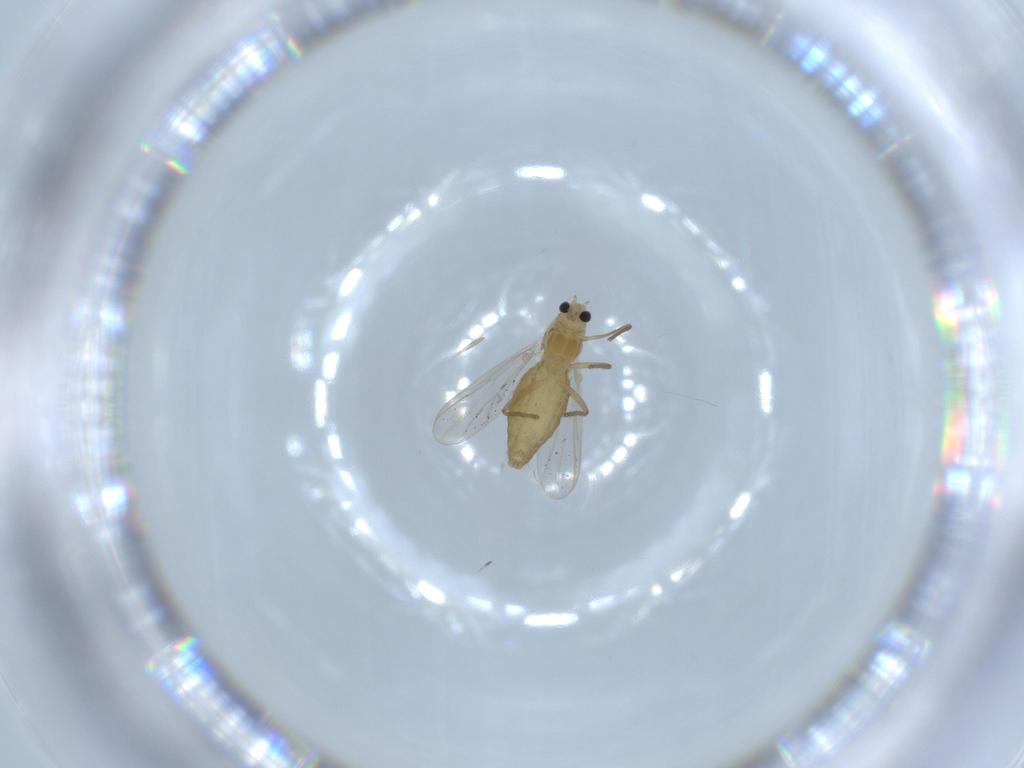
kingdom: Animalia
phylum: Arthropoda
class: Insecta
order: Diptera
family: Chironomidae
